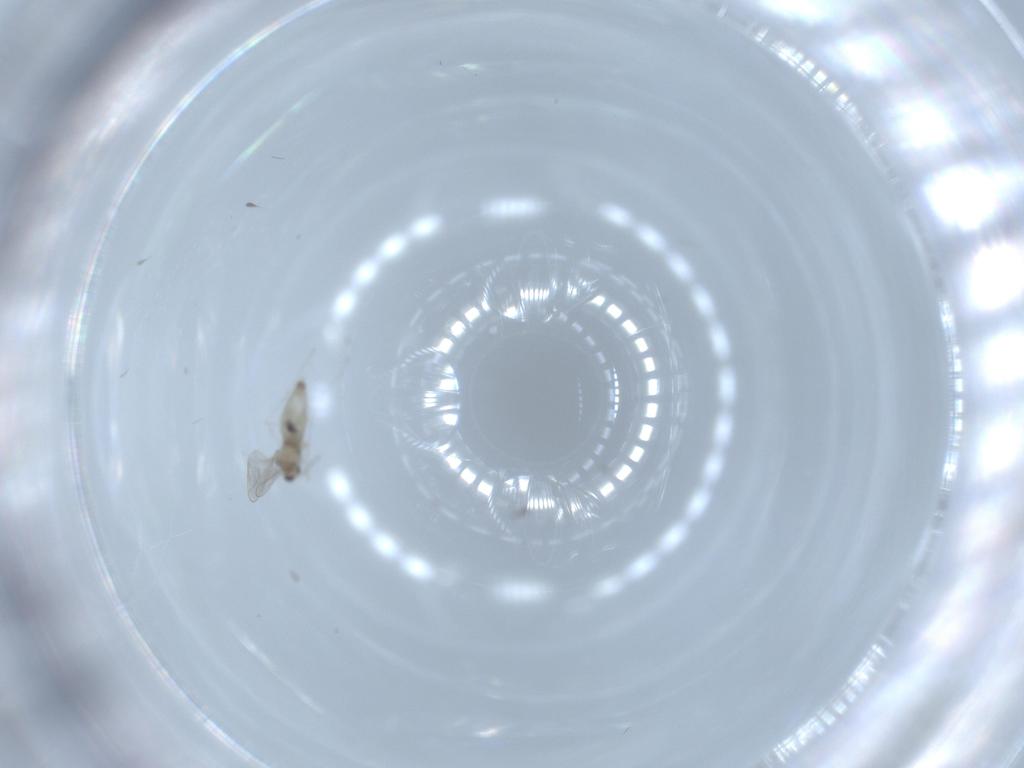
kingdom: Animalia
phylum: Arthropoda
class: Insecta
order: Diptera
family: Cecidomyiidae
